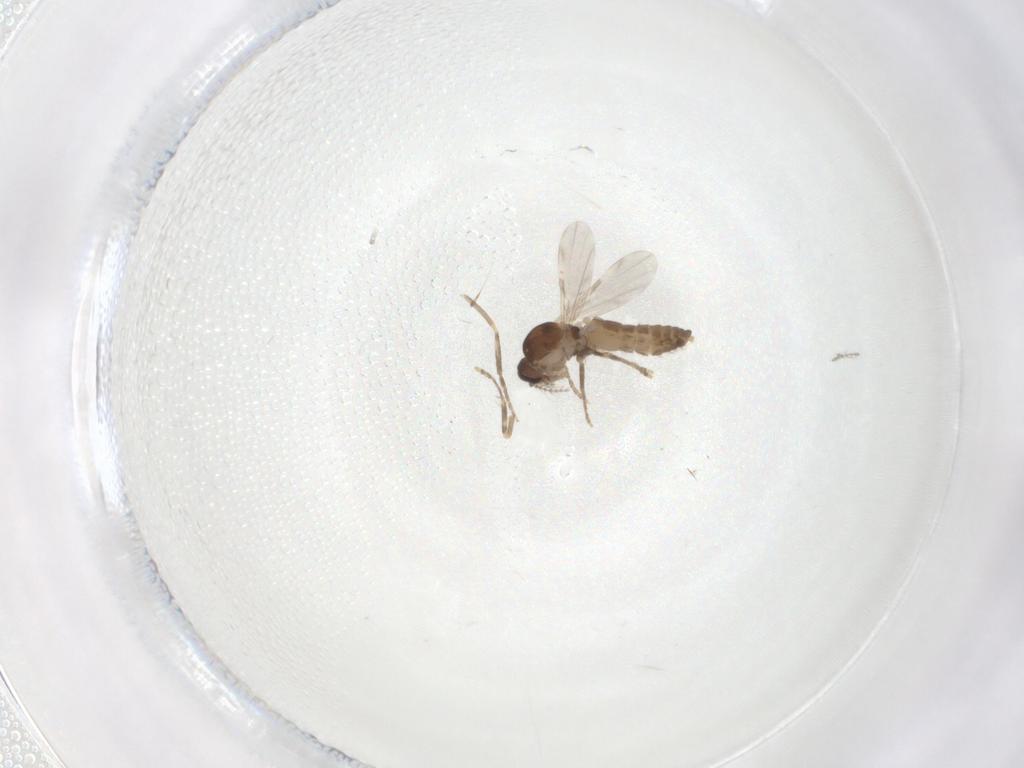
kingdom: Animalia
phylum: Arthropoda
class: Insecta
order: Diptera
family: Ceratopogonidae
